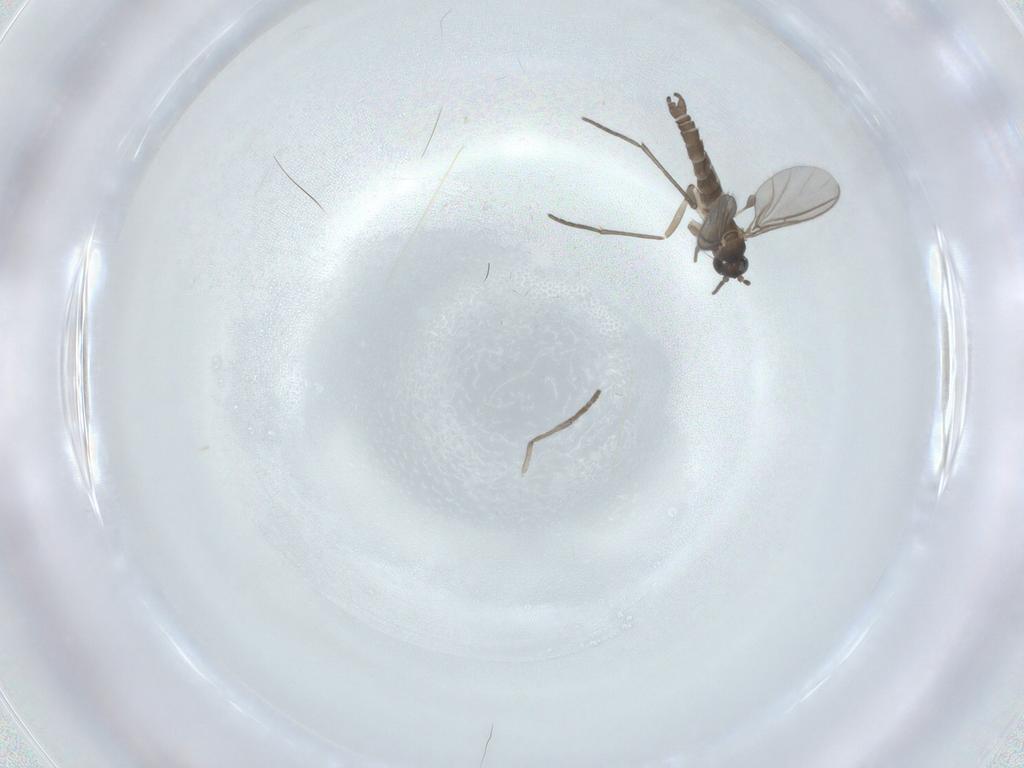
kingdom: Animalia
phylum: Arthropoda
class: Insecta
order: Diptera
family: Sciaridae
